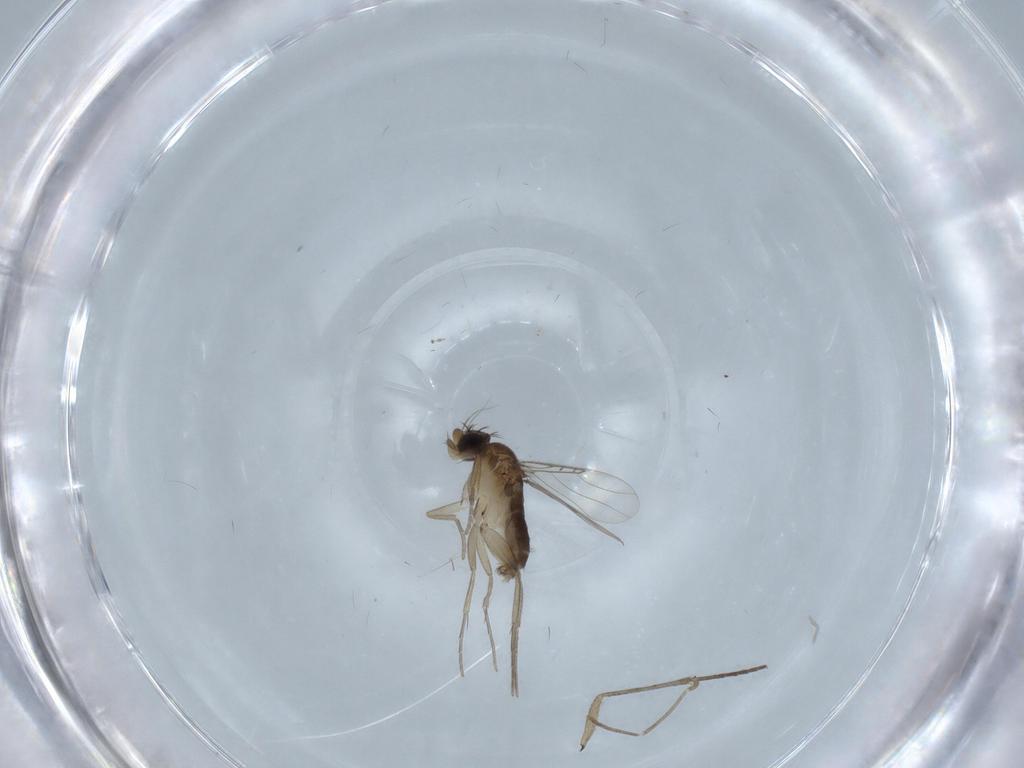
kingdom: Animalia
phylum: Arthropoda
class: Insecta
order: Diptera
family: Phoridae
